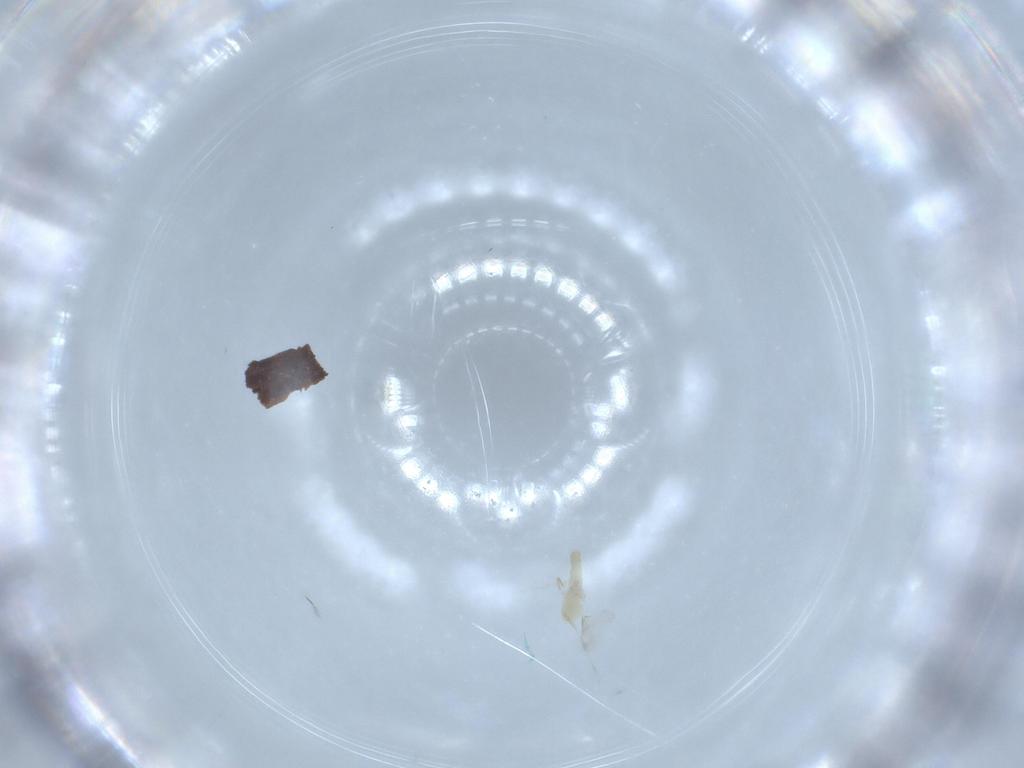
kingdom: Animalia
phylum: Arthropoda
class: Insecta
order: Diptera
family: Cecidomyiidae
